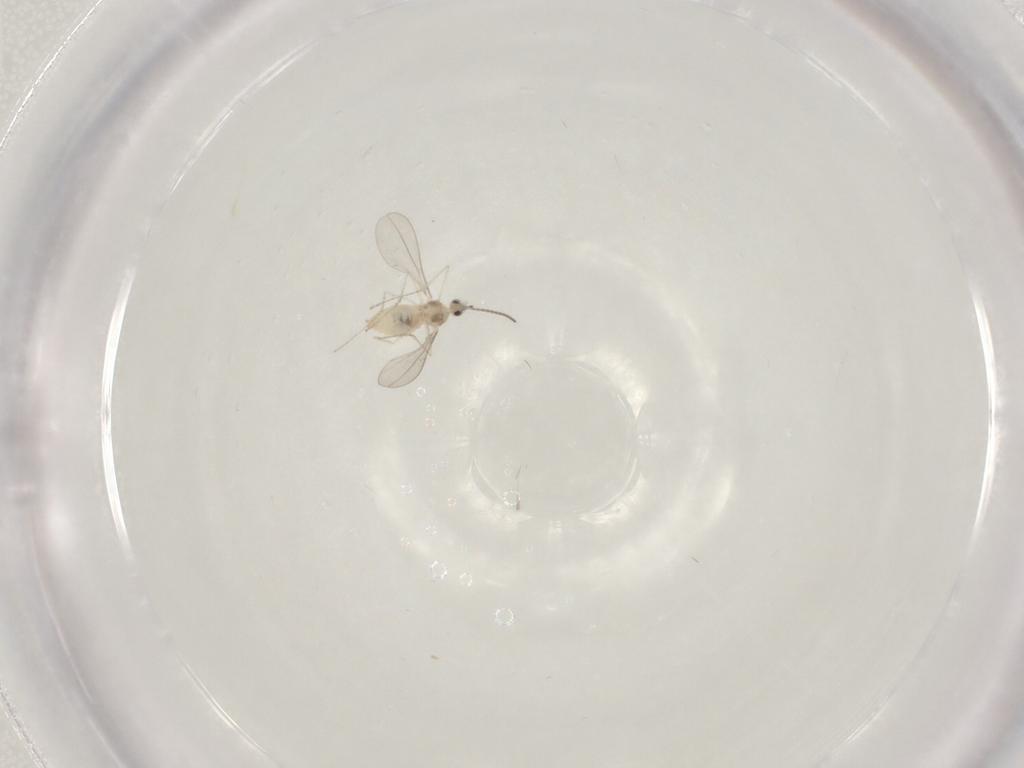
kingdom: Animalia
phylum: Arthropoda
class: Insecta
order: Diptera
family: Cecidomyiidae
